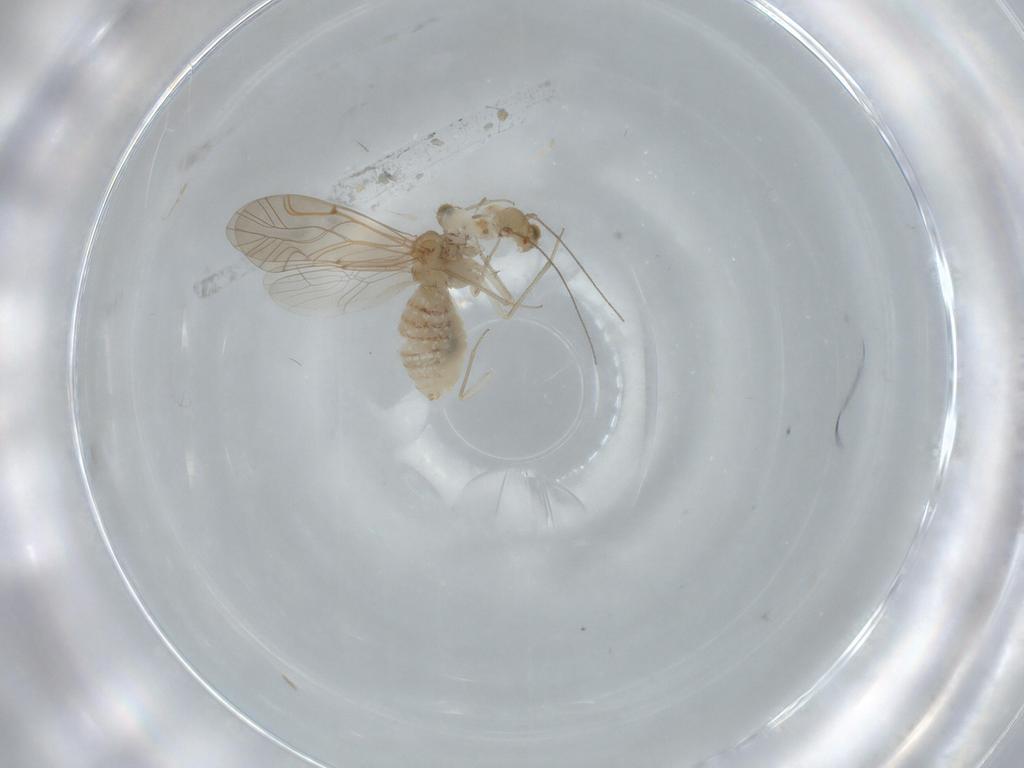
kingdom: Animalia
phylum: Arthropoda
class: Insecta
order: Psocodea
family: Lachesillidae
